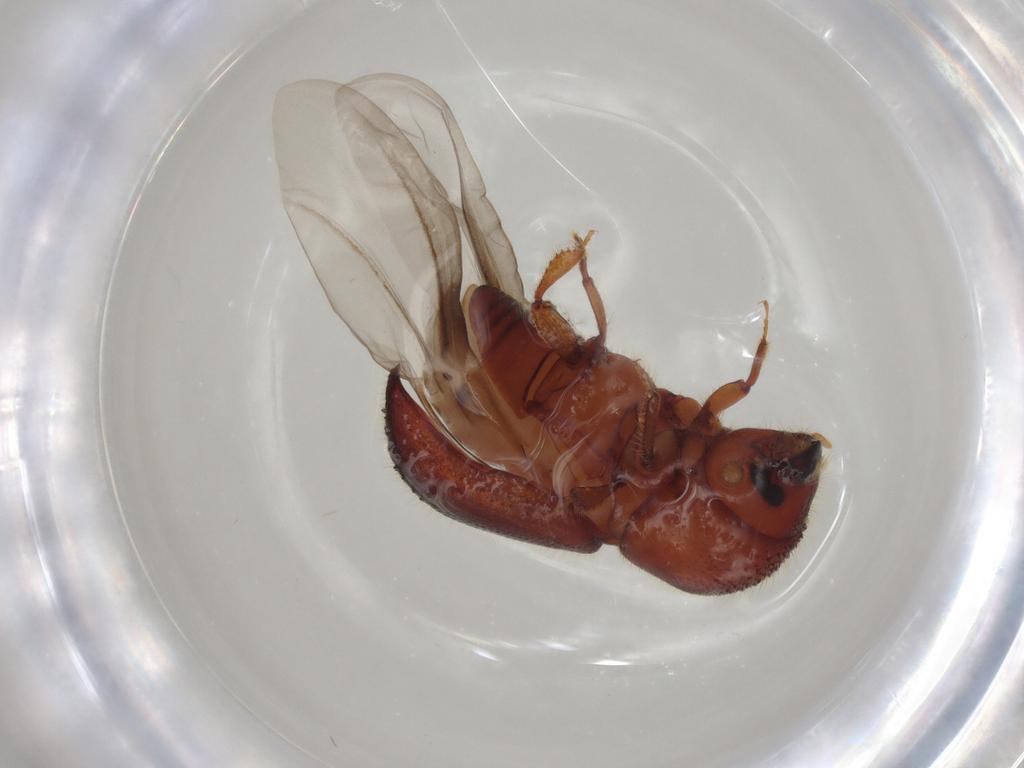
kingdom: Animalia
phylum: Arthropoda
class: Insecta
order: Coleoptera
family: Curculionidae
